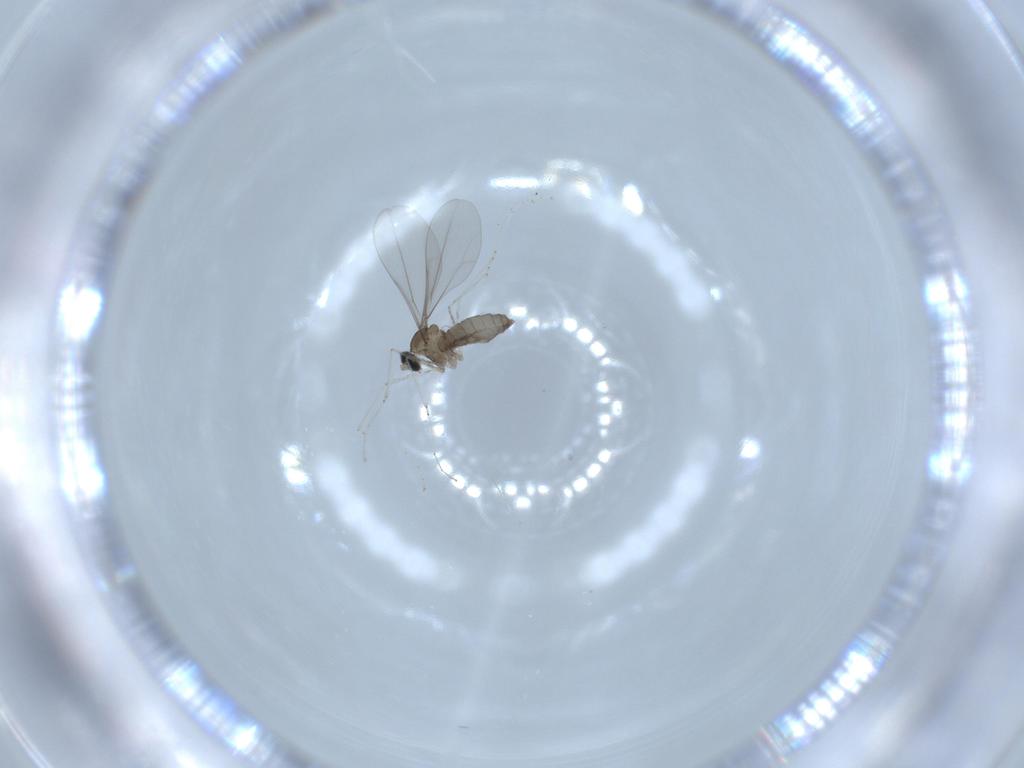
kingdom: Animalia
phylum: Arthropoda
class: Insecta
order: Diptera
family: Cecidomyiidae
